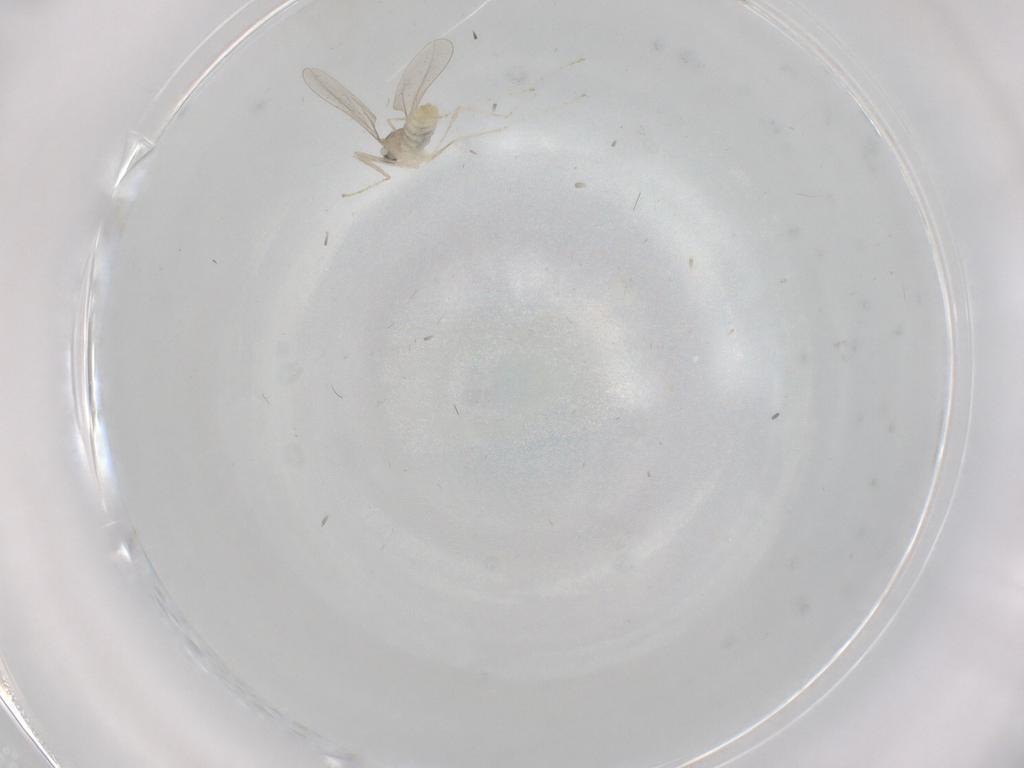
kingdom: Animalia
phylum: Arthropoda
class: Insecta
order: Diptera
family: Cecidomyiidae
